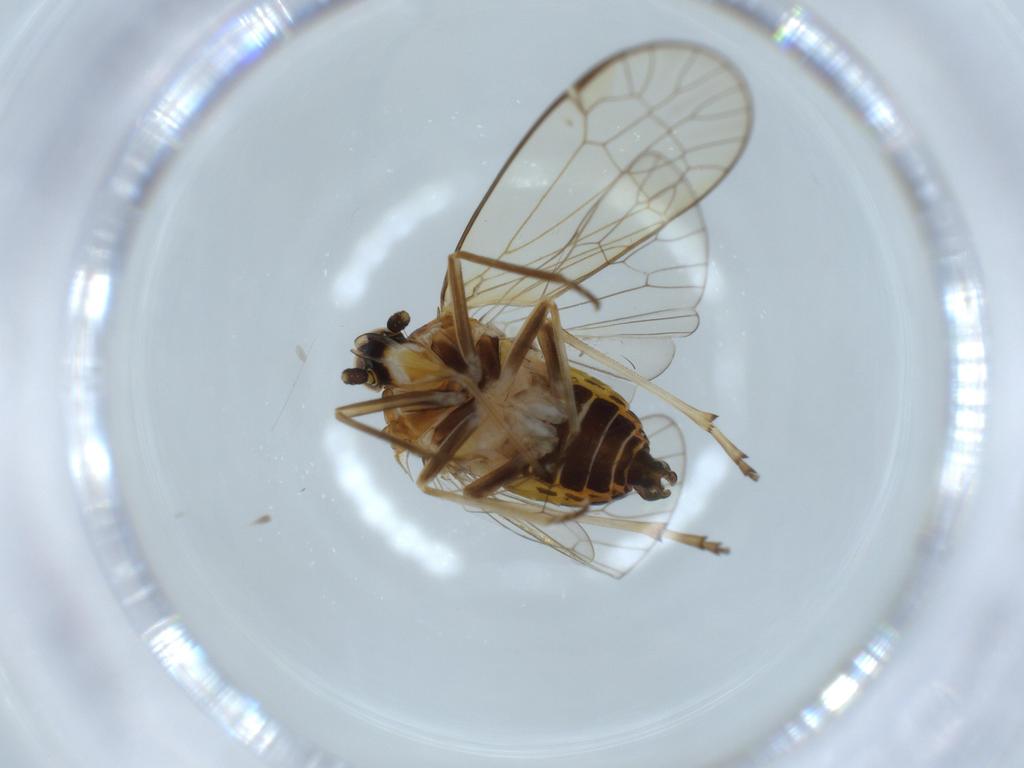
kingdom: Animalia
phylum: Arthropoda
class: Insecta
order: Hemiptera
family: Kinnaridae
